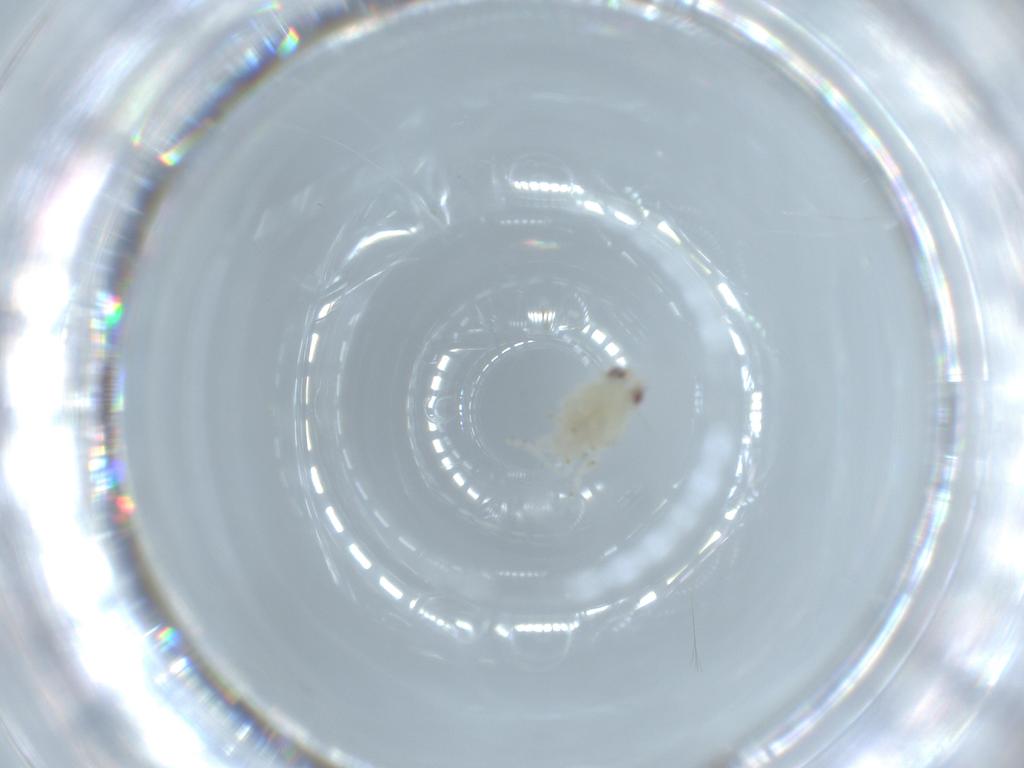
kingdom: Animalia
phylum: Arthropoda
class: Insecta
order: Hemiptera
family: Nogodinidae
